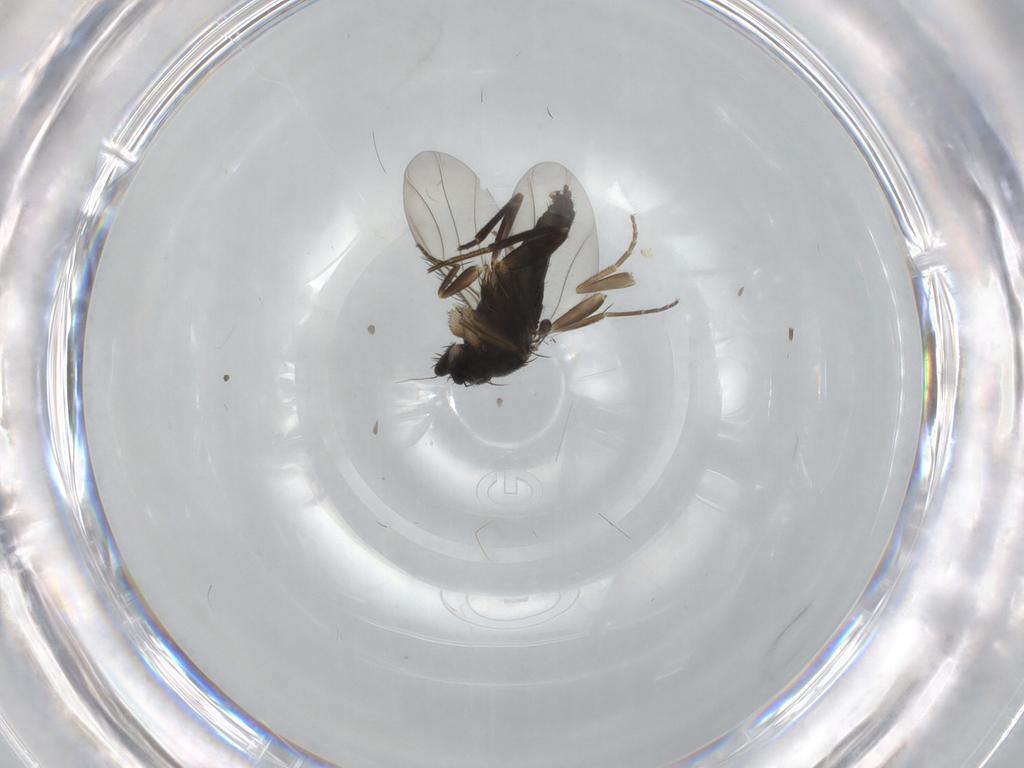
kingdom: Animalia
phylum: Arthropoda
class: Insecta
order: Diptera
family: Phoridae
